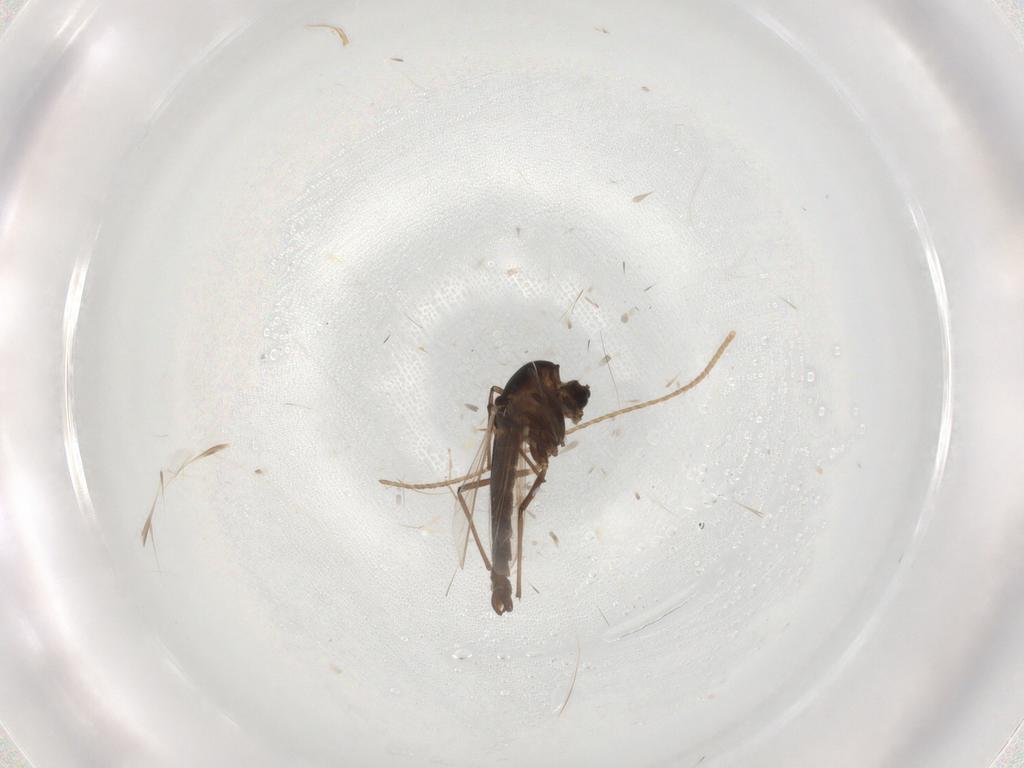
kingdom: Animalia
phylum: Arthropoda
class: Insecta
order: Diptera
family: Cecidomyiidae
